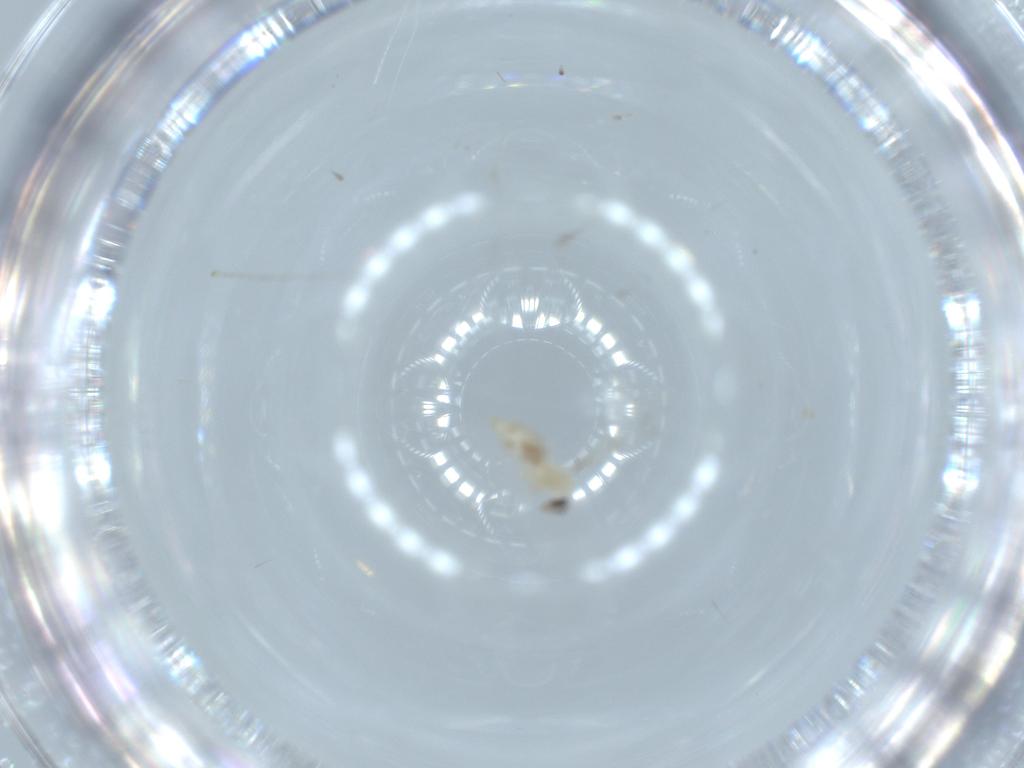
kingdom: Animalia
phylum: Arthropoda
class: Insecta
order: Diptera
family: Cecidomyiidae
